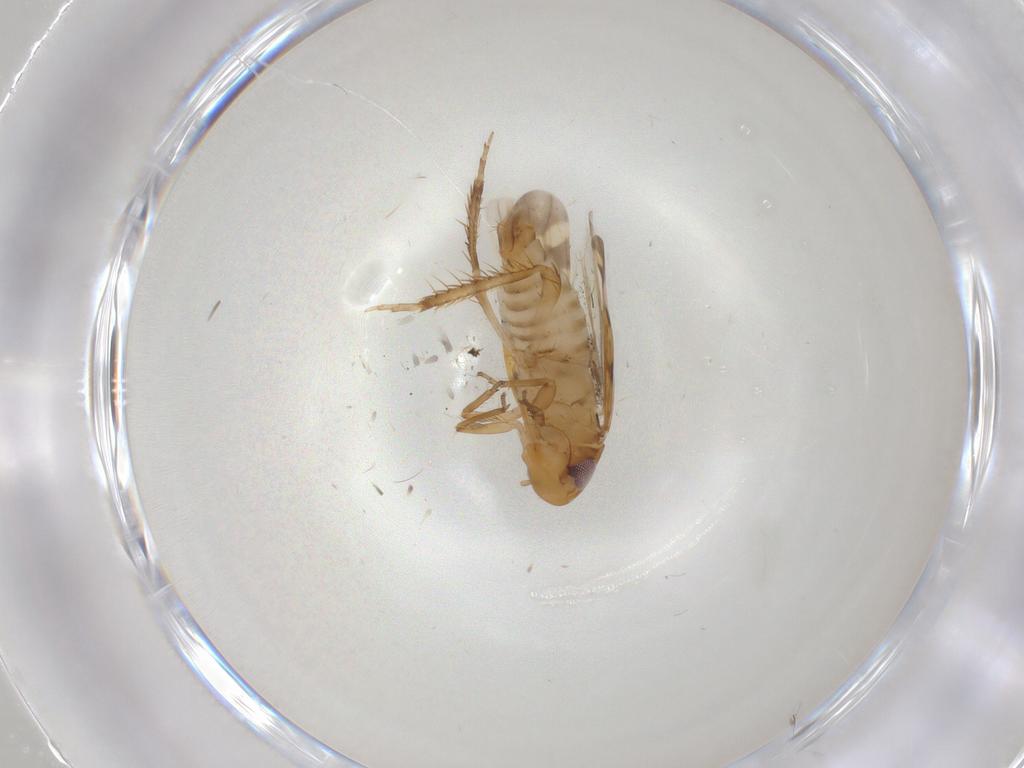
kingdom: Animalia
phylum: Arthropoda
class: Insecta
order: Hemiptera
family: Cicadellidae
